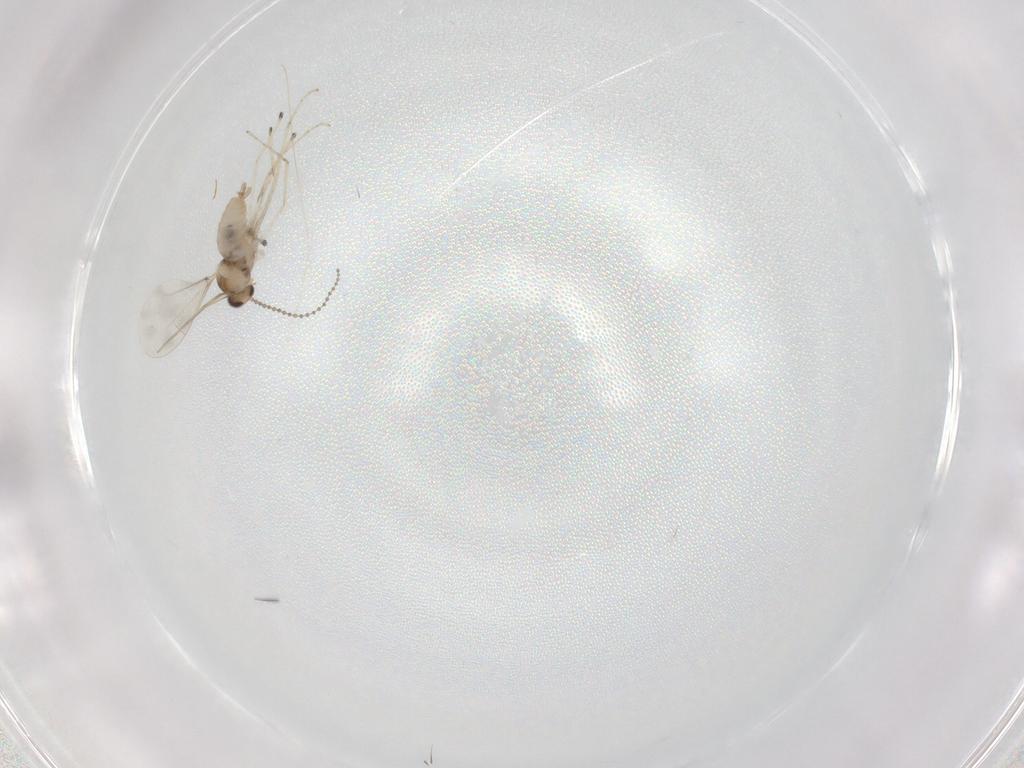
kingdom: Animalia
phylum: Arthropoda
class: Insecta
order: Diptera
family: Cecidomyiidae
